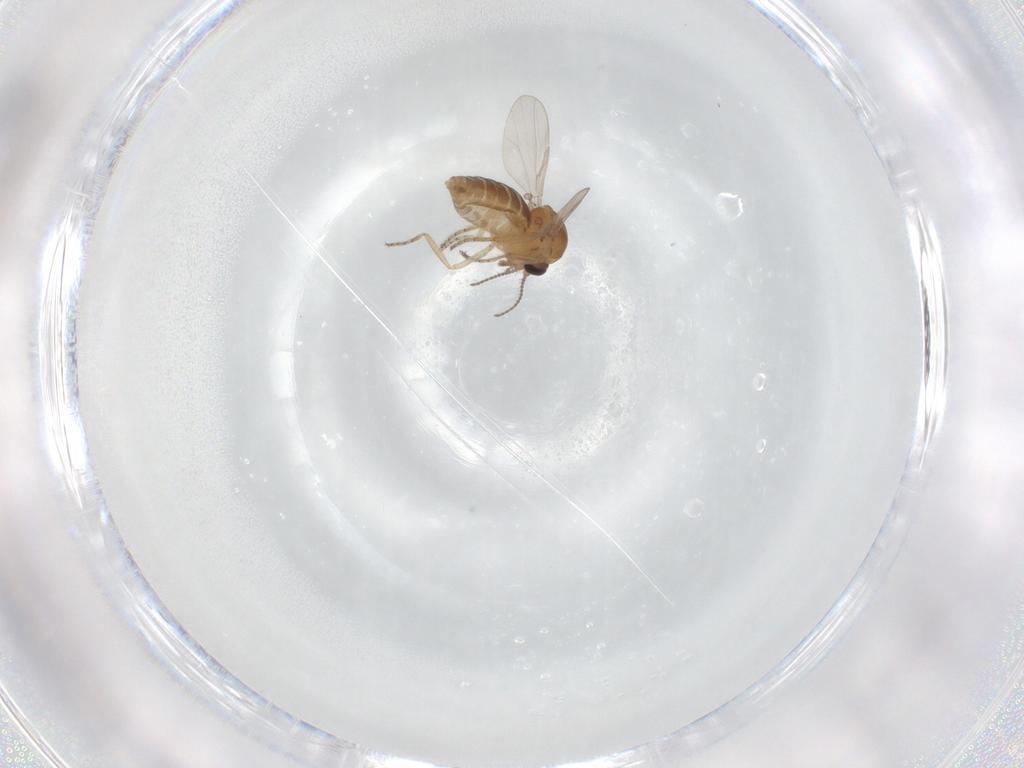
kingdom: Animalia
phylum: Arthropoda
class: Insecta
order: Diptera
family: Ceratopogonidae
